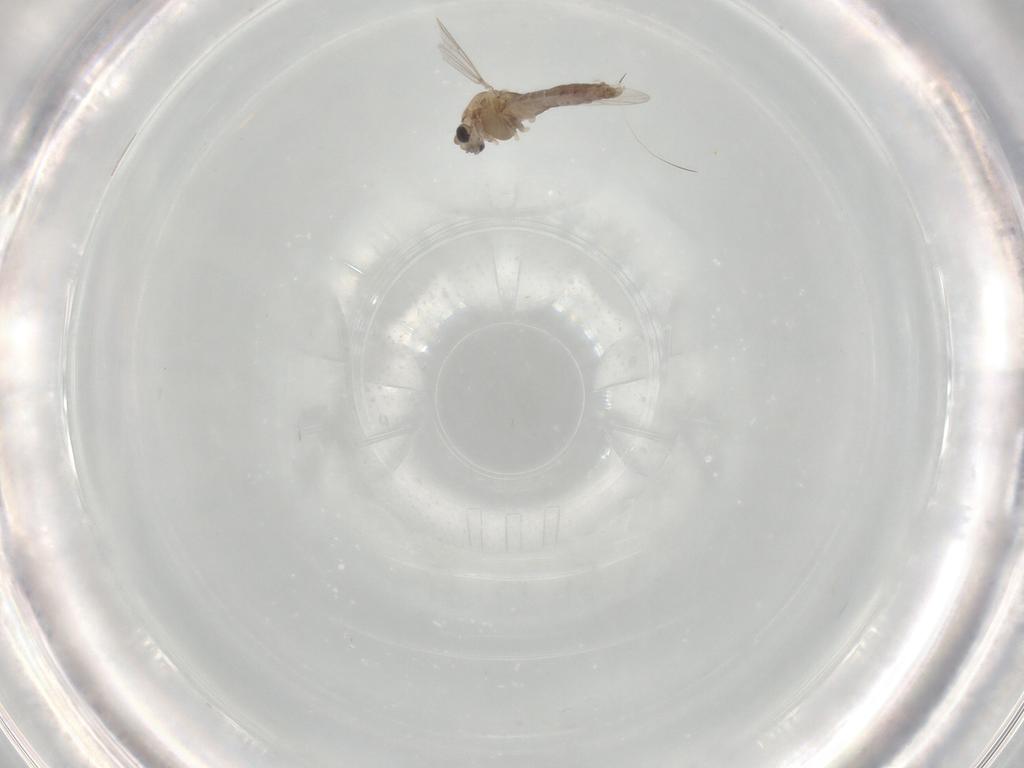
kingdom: Animalia
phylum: Arthropoda
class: Insecta
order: Diptera
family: Chironomidae
